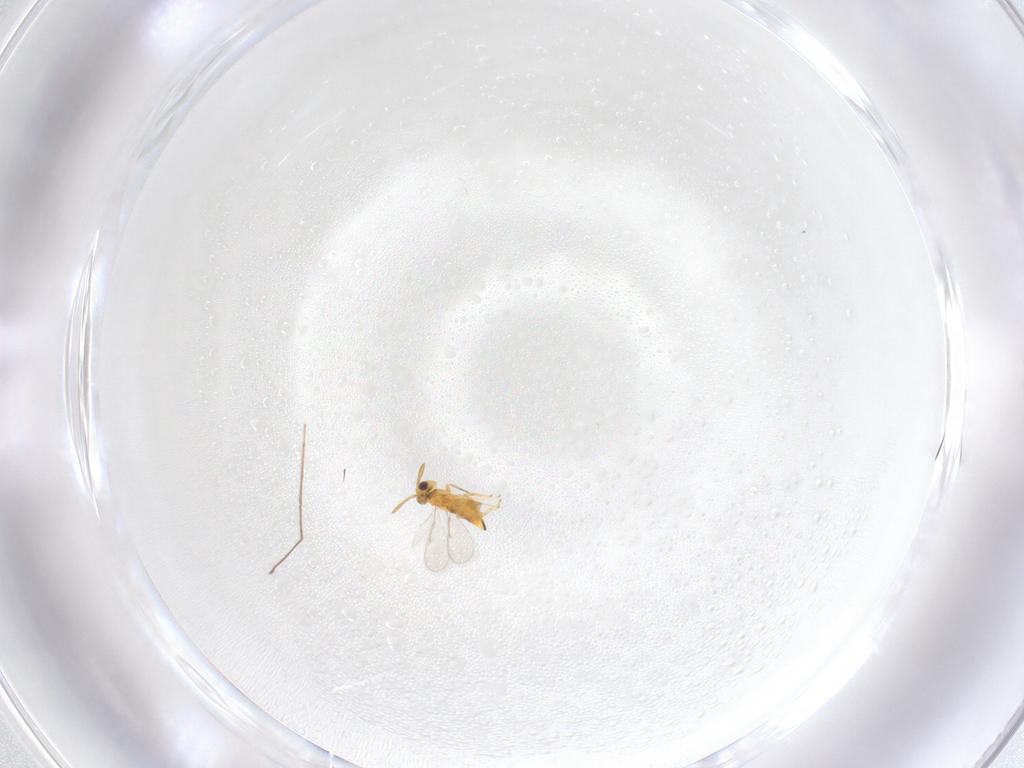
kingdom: Animalia
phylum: Arthropoda
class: Insecta
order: Hymenoptera
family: Aphelinidae
